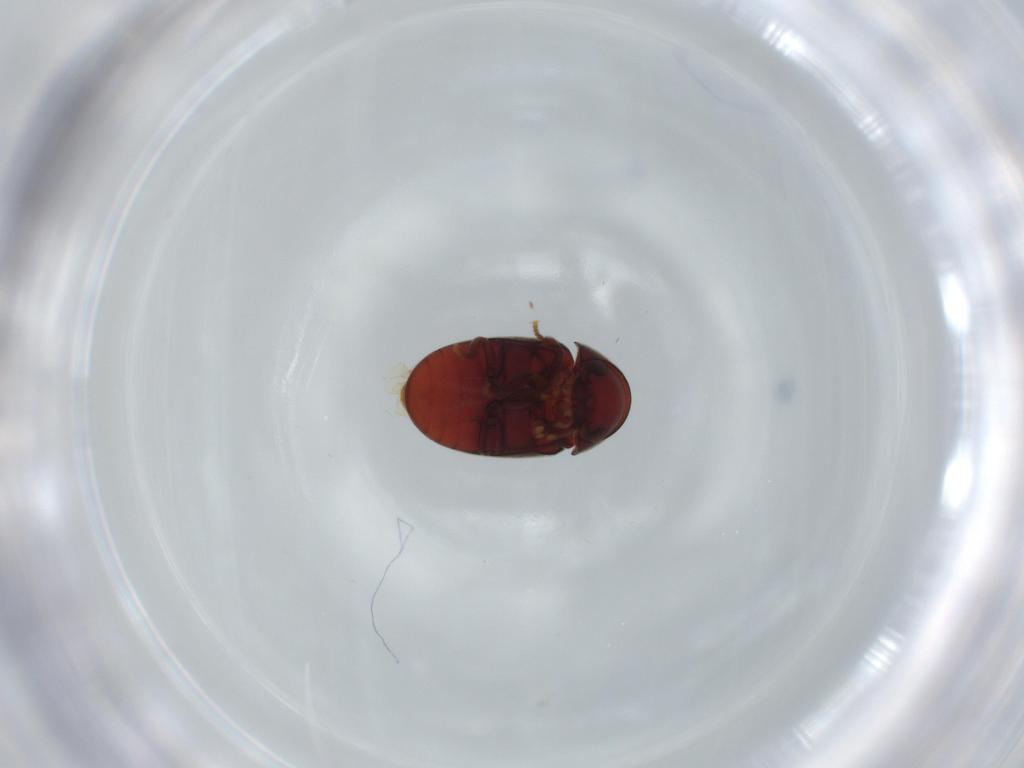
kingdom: Animalia
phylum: Arthropoda
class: Insecta
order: Coleoptera
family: Ptinidae
